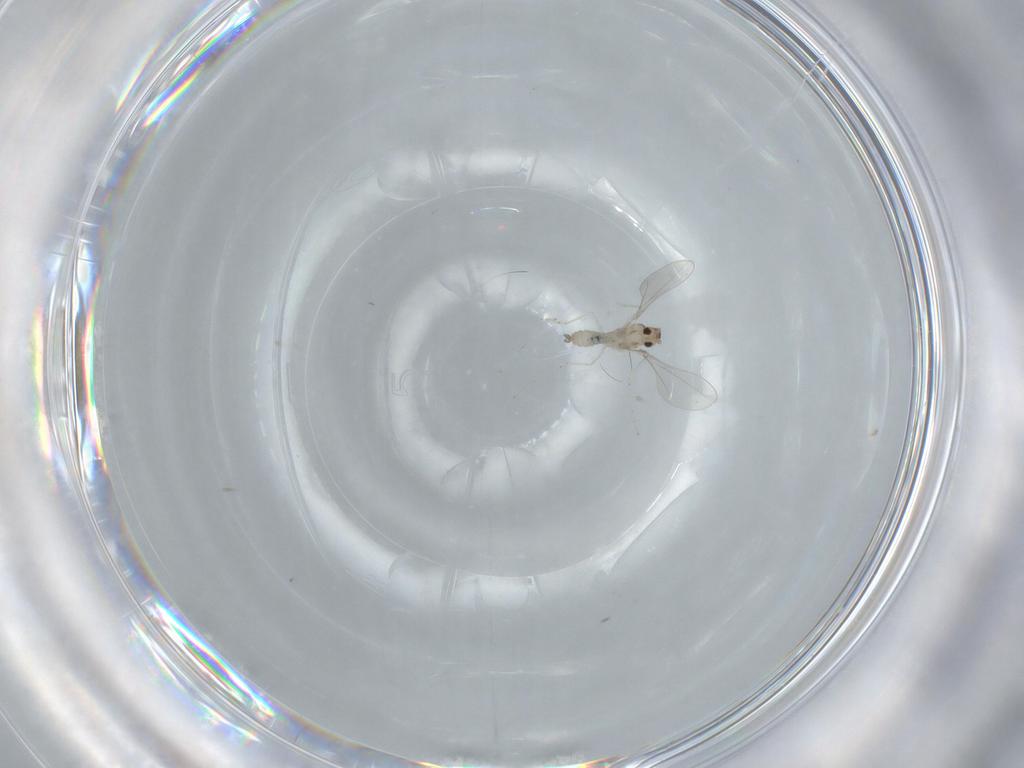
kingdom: Animalia
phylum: Arthropoda
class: Insecta
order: Diptera
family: Cecidomyiidae
